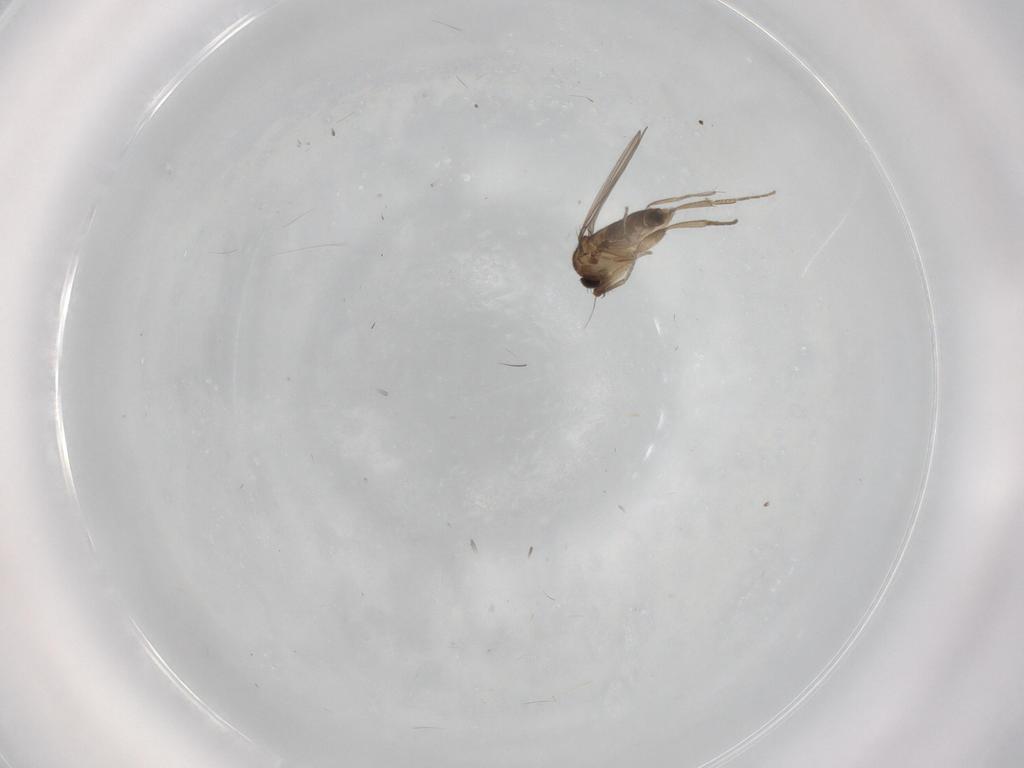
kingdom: Animalia
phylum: Arthropoda
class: Insecta
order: Diptera
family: Phoridae
